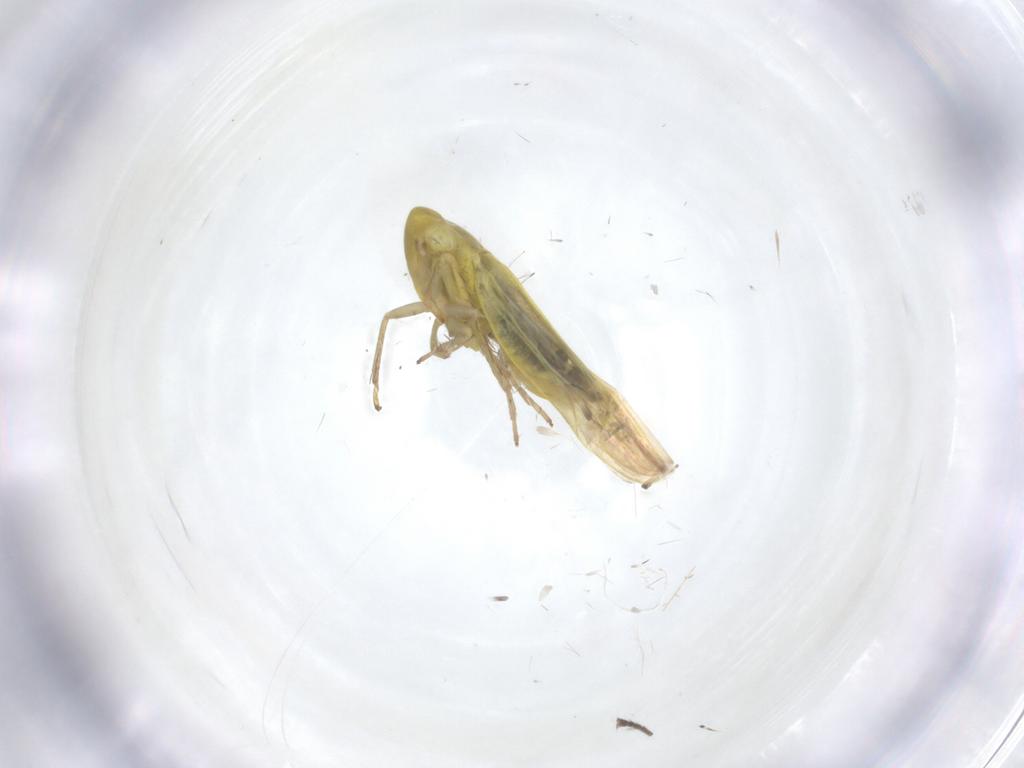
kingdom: Animalia
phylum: Arthropoda
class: Insecta
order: Hemiptera
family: Cicadellidae
